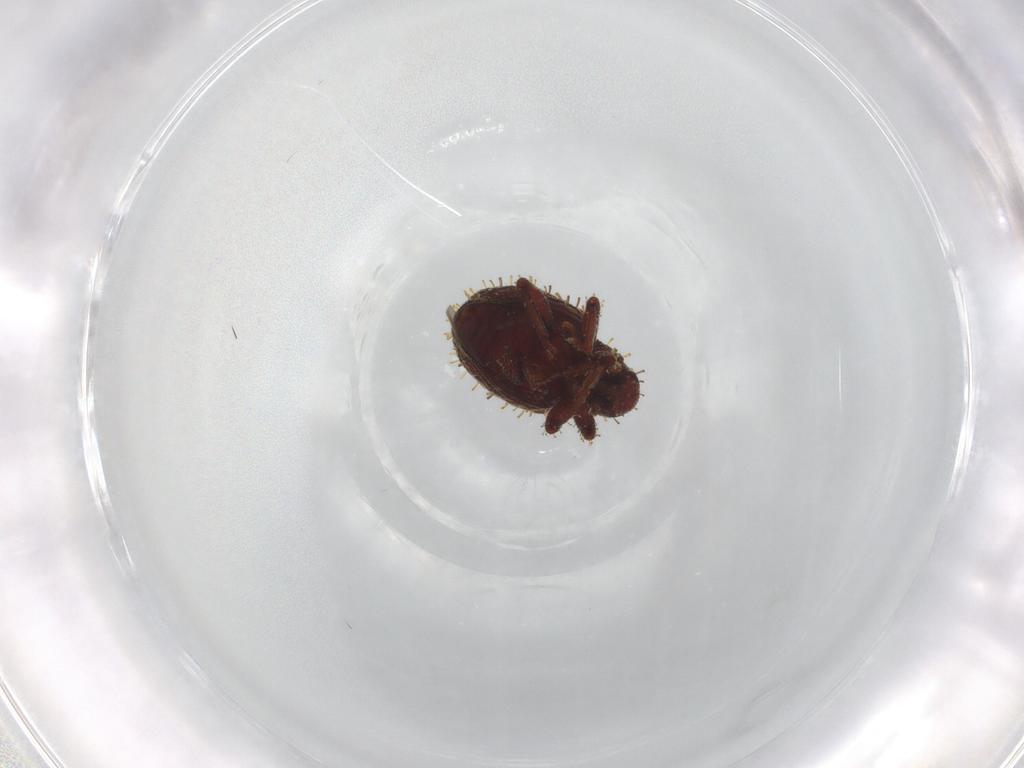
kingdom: Animalia
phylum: Arthropoda
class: Insecta
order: Coleoptera
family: Curculionidae
